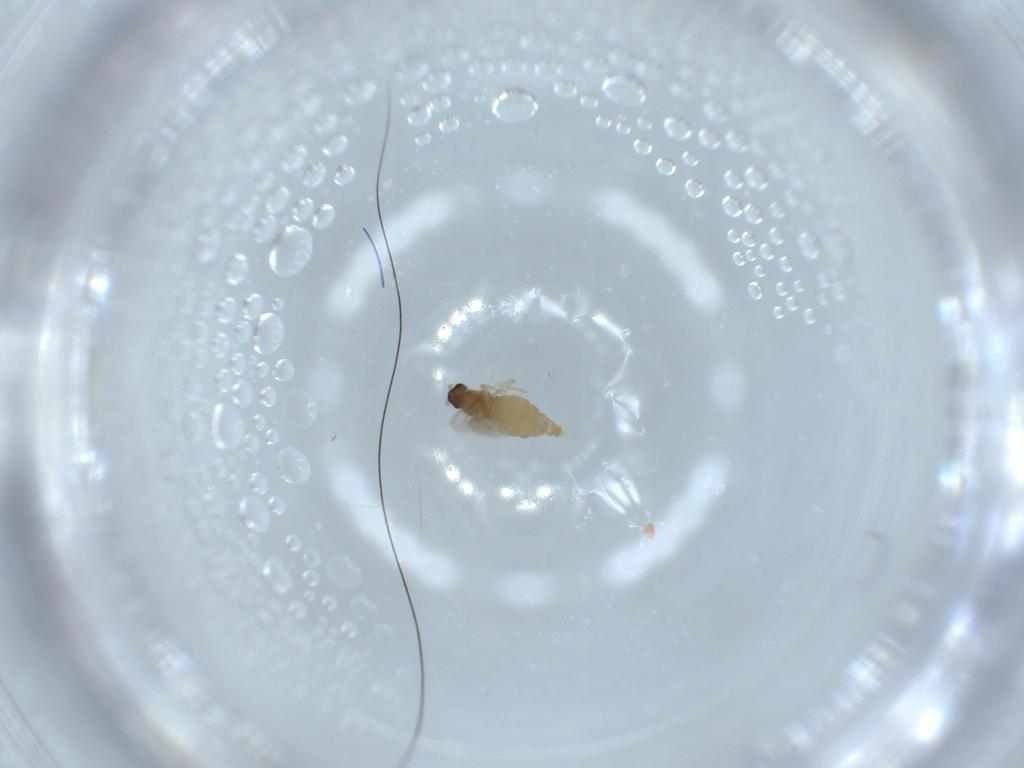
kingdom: Animalia
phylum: Arthropoda
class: Insecta
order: Diptera
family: Cecidomyiidae
